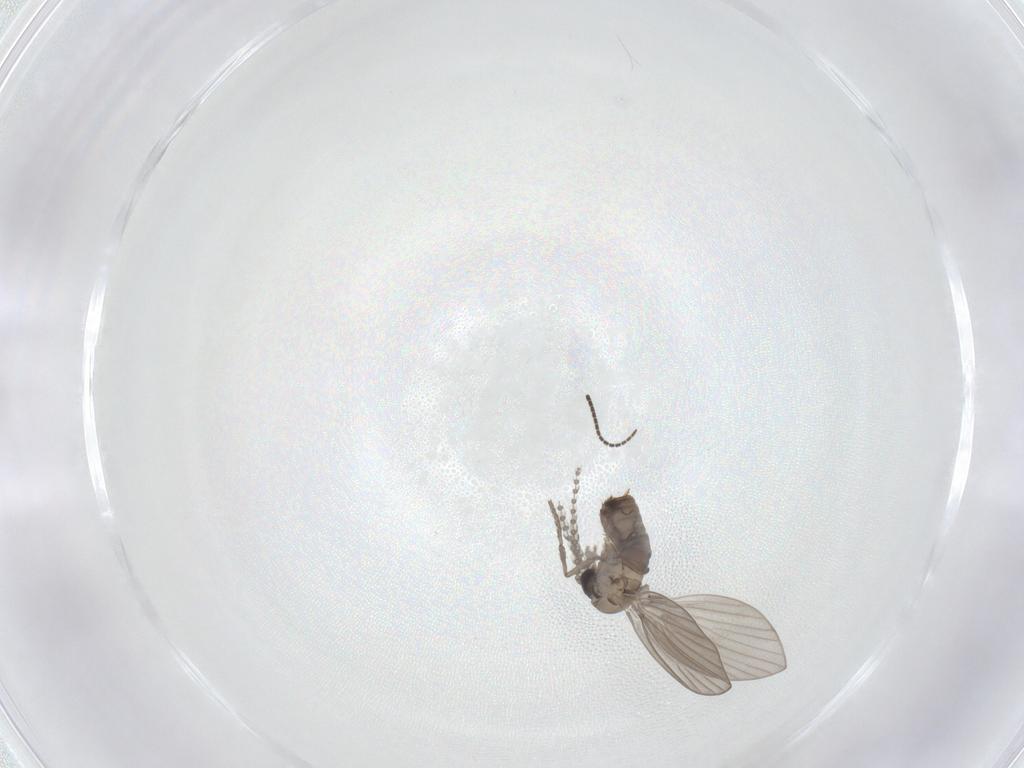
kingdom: Animalia
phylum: Arthropoda
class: Insecta
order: Diptera
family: Psychodidae
